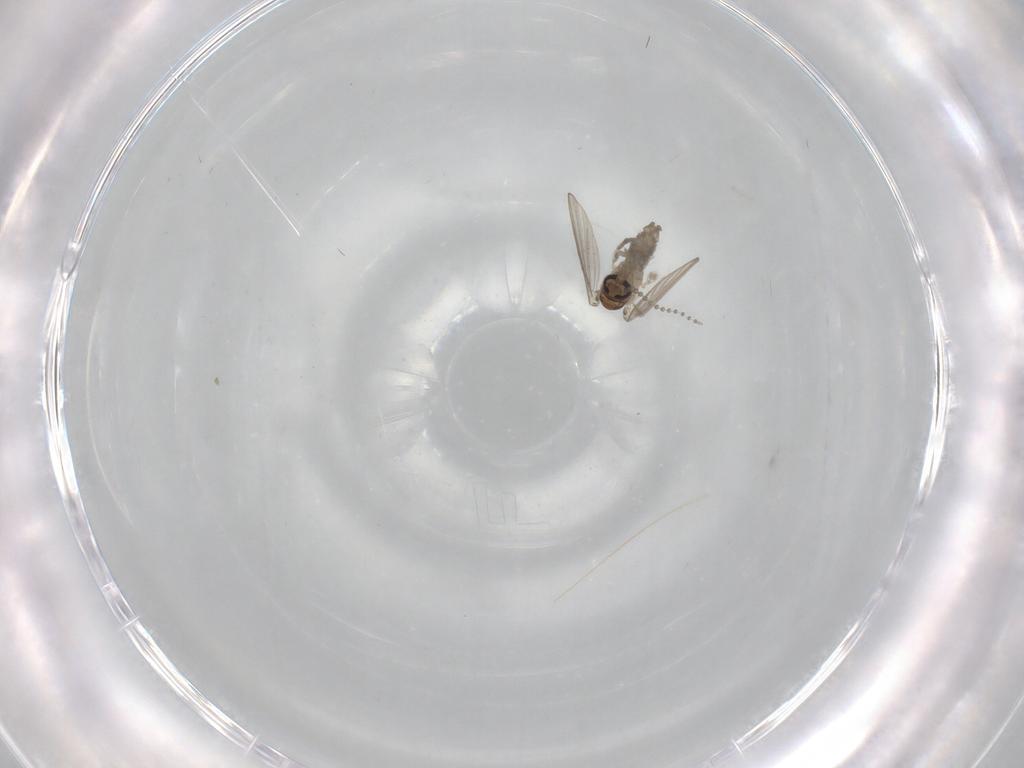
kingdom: Animalia
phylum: Arthropoda
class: Insecta
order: Diptera
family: Psychodidae
